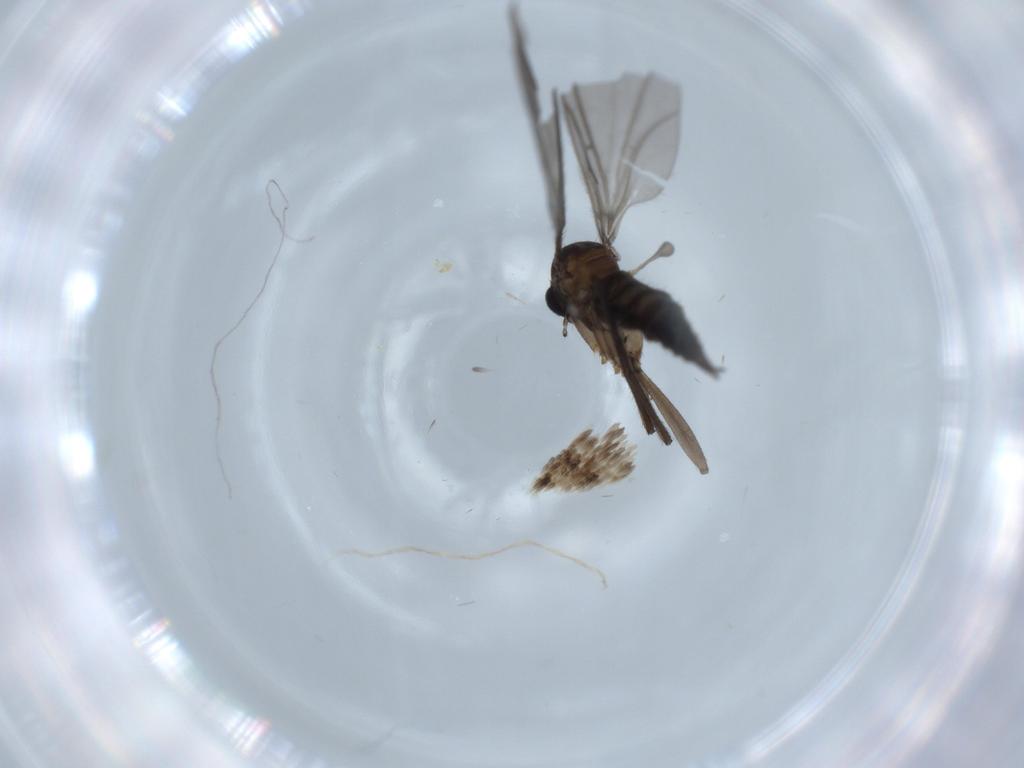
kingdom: Animalia
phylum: Arthropoda
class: Insecta
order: Diptera
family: Sciaridae
